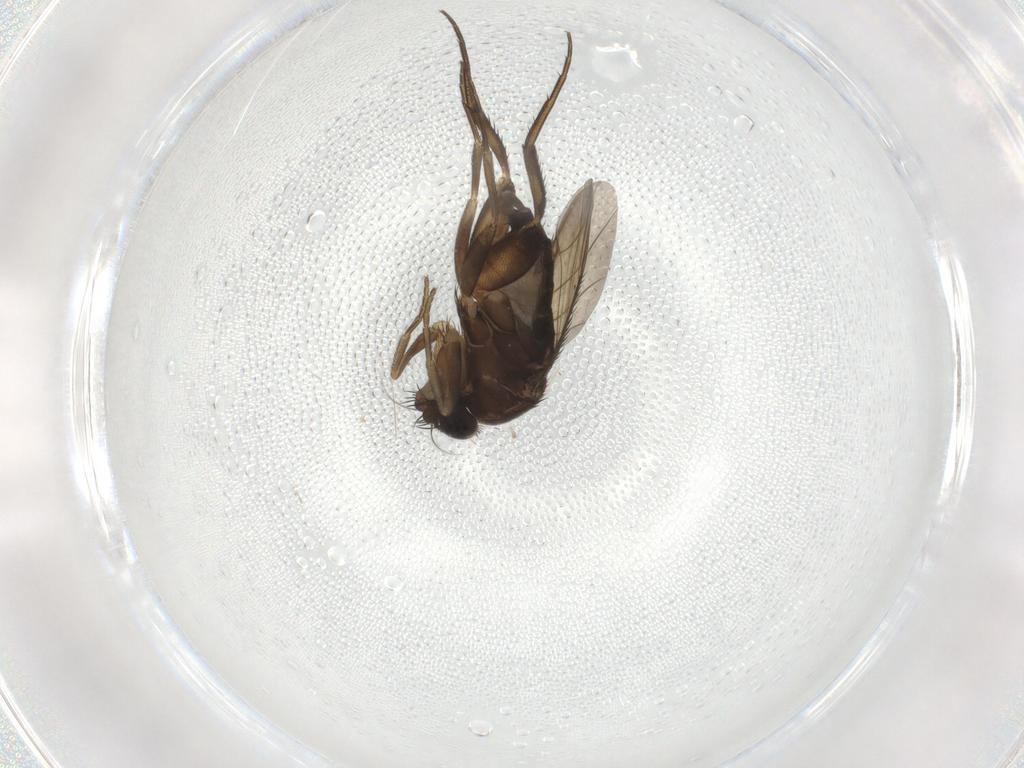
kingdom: Animalia
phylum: Arthropoda
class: Insecta
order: Diptera
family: Phoridae
